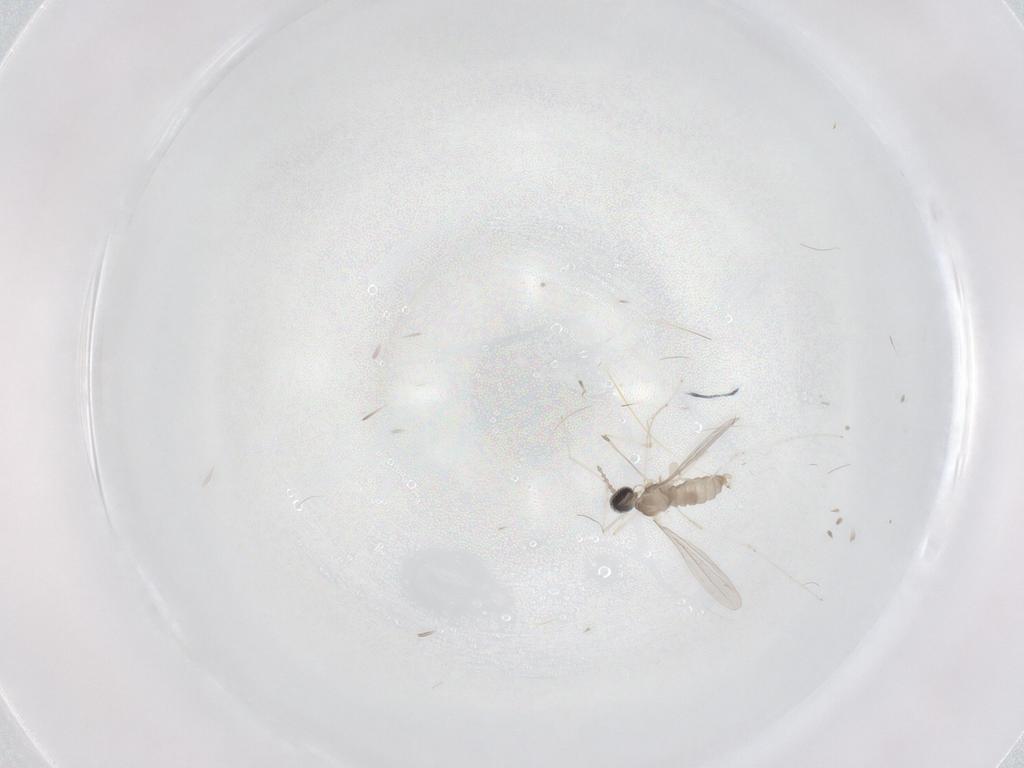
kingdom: Animalia
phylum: Arthropoda
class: Insecta
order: Diptera
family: Cecidomyiidae
